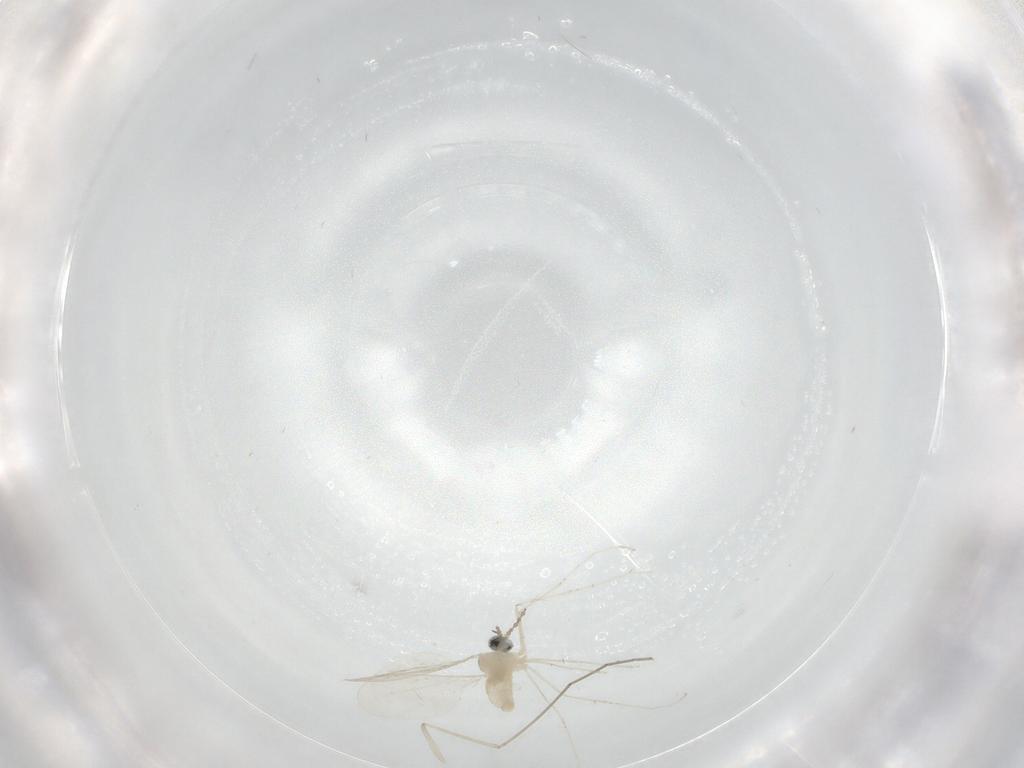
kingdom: Animalia
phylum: Arthropoda
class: Insecta
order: Diptera
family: Cecidomyiidae
